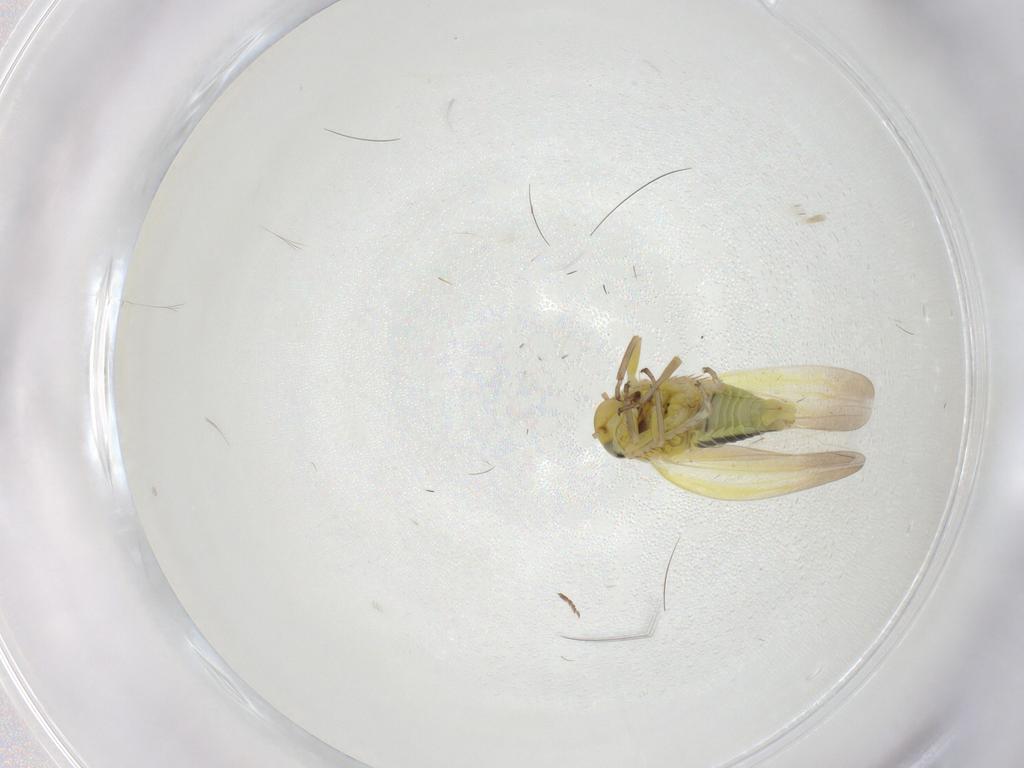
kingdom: Animalia
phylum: Arthropoda
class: Insecta
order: Hemiptera
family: Cicadellidae
